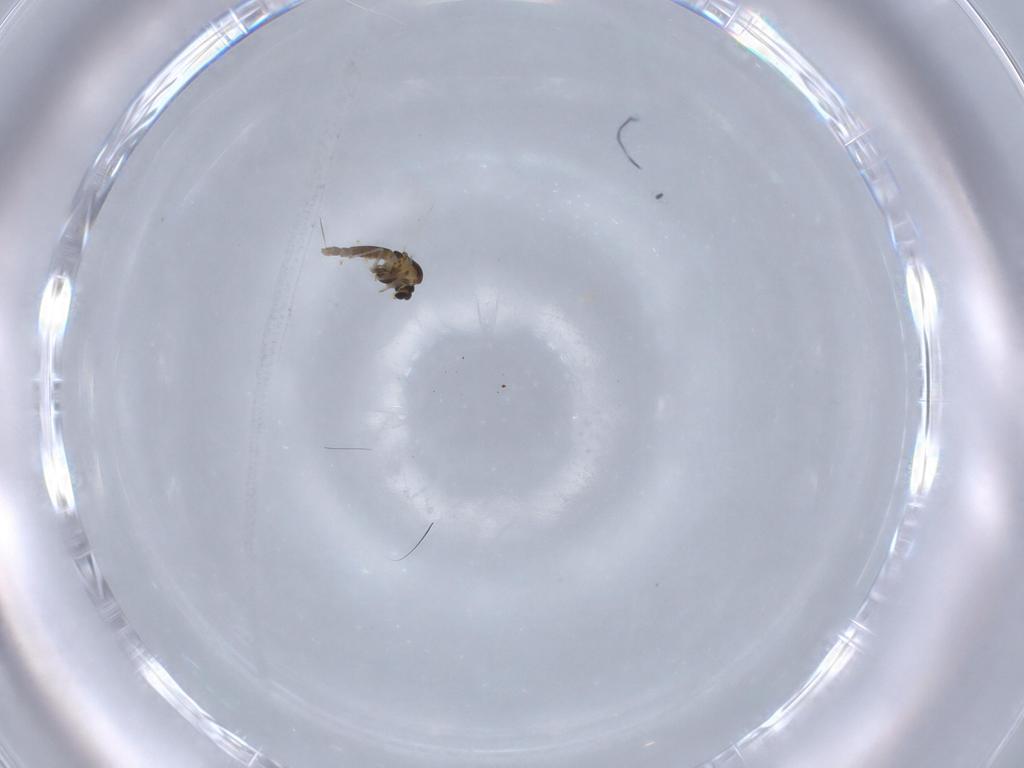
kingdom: Animalia
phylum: Arthropoda
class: Insecta
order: Diptera
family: Chironomidae
